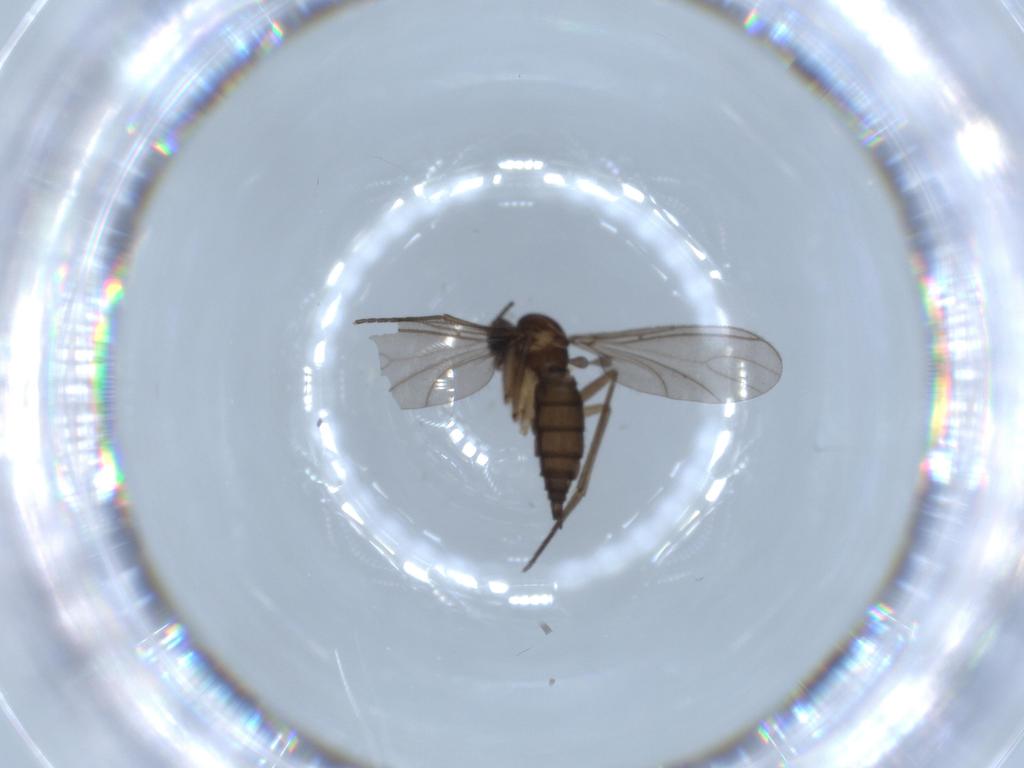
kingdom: Animalia
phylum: Arthropoda
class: Insecta
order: Diptera
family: Sciaridae
